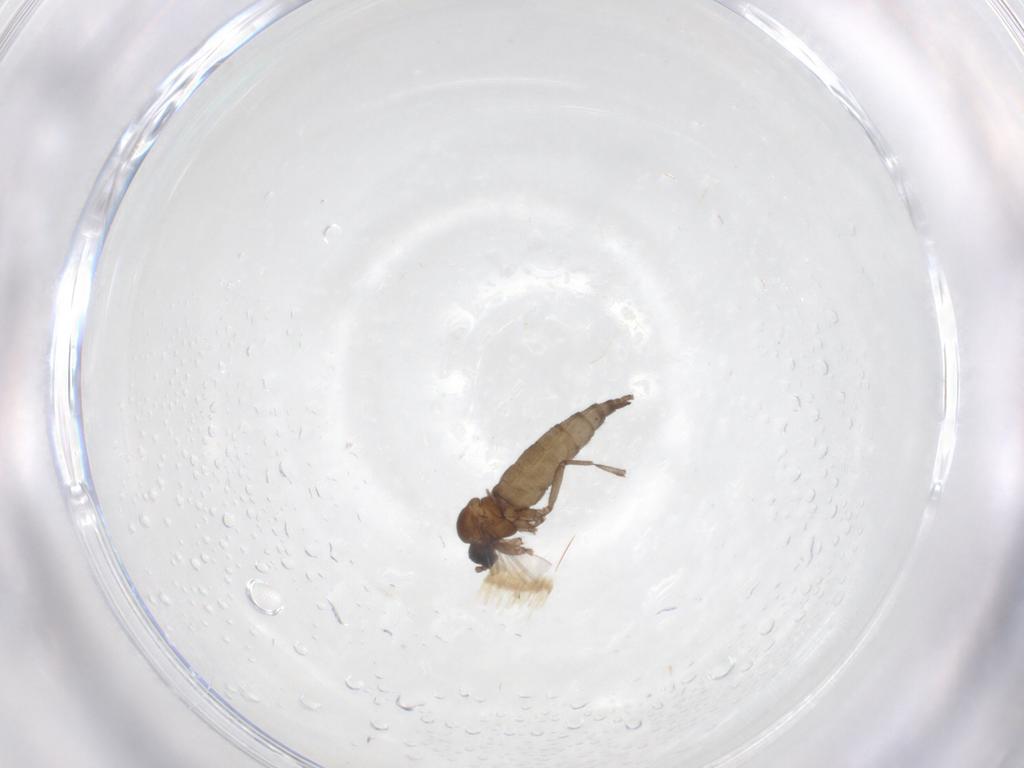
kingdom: Animalia
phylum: Arthropoda
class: Insecta
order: Diptera
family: Sciaridae
